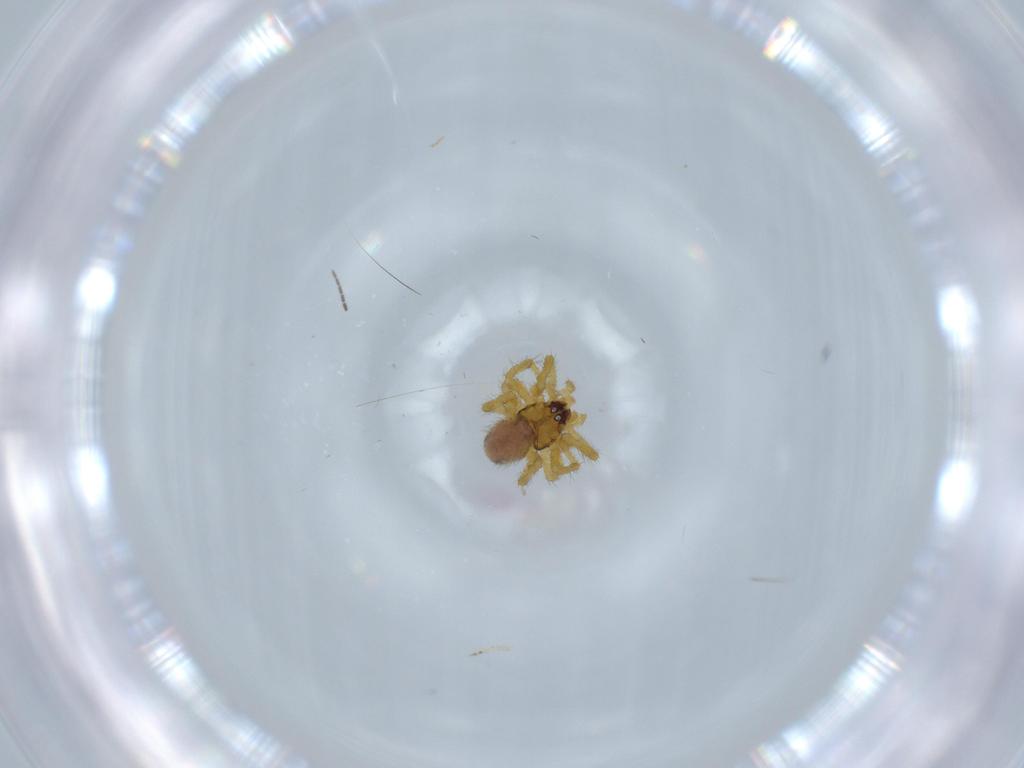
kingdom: Animalia
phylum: Arthropoda
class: Arachnida
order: Araneae
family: Theridiidae
